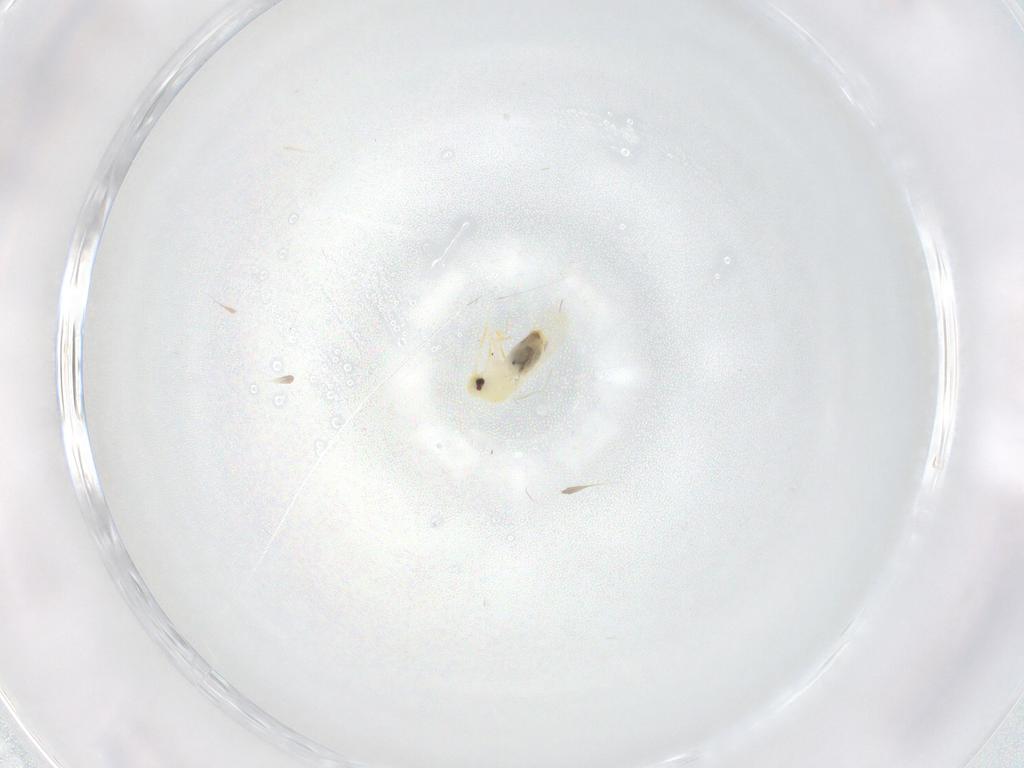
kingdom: Animalia
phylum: Arthropoda
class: Insecta
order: Hemiptera
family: Aleyrodidae
